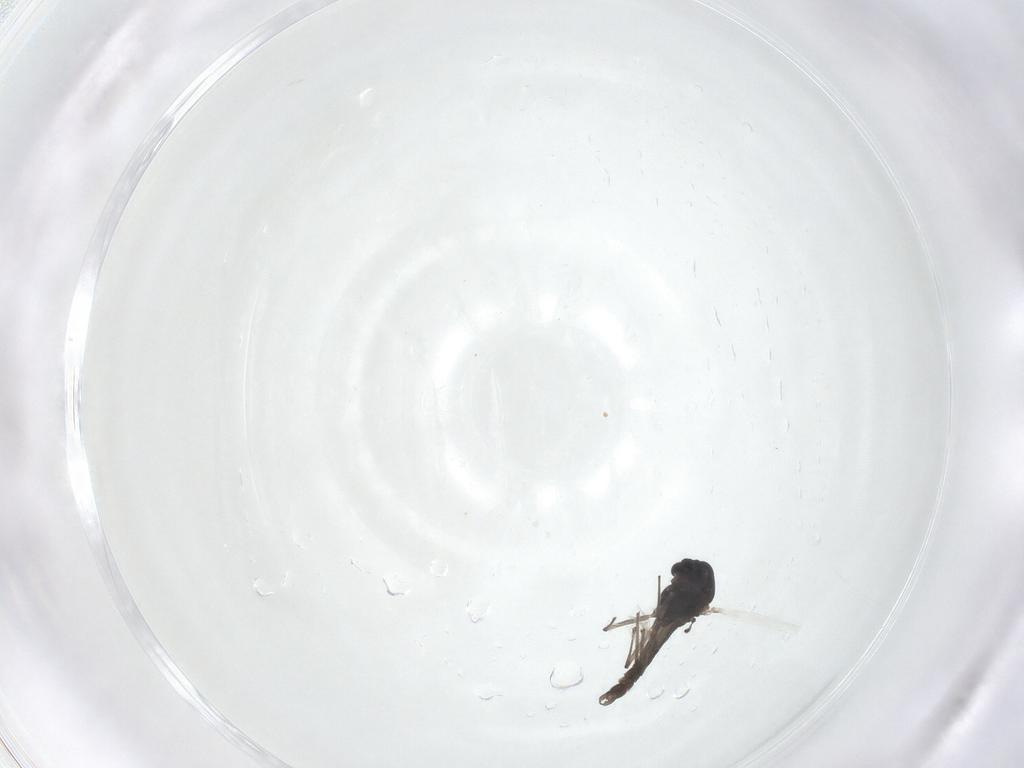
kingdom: Animalia
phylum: Arthropoda
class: Insecta
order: Diptera
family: Chironomidae
